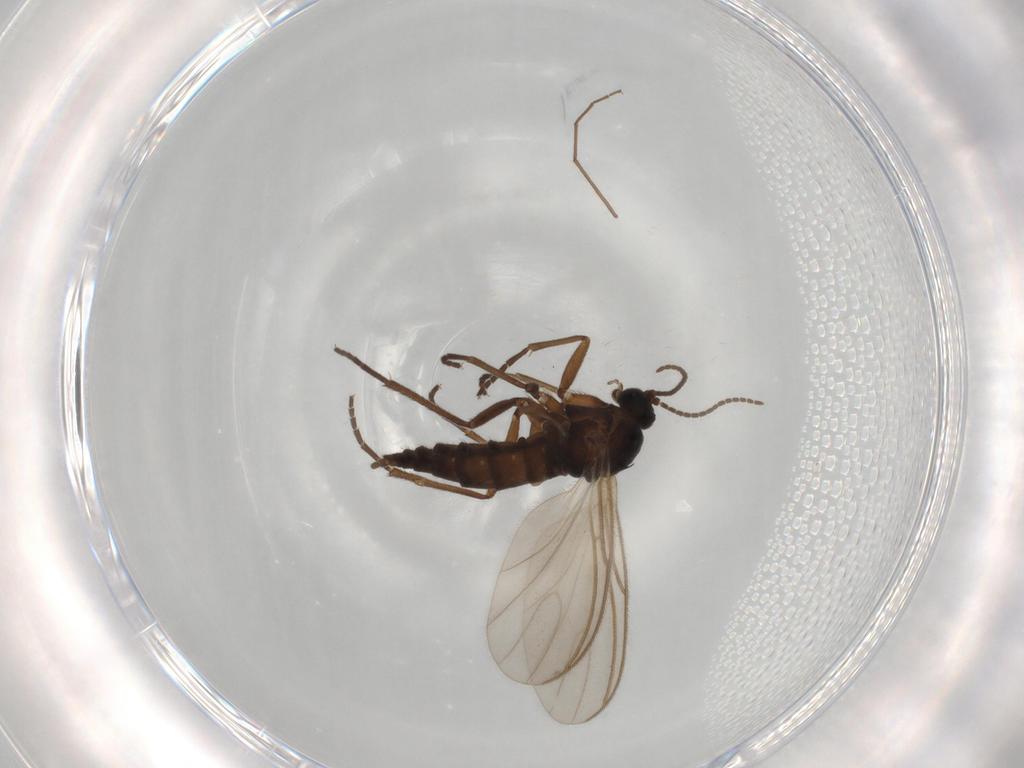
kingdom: Animalia
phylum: Arthropoda
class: Insecta
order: Diptera
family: Sciaridae
